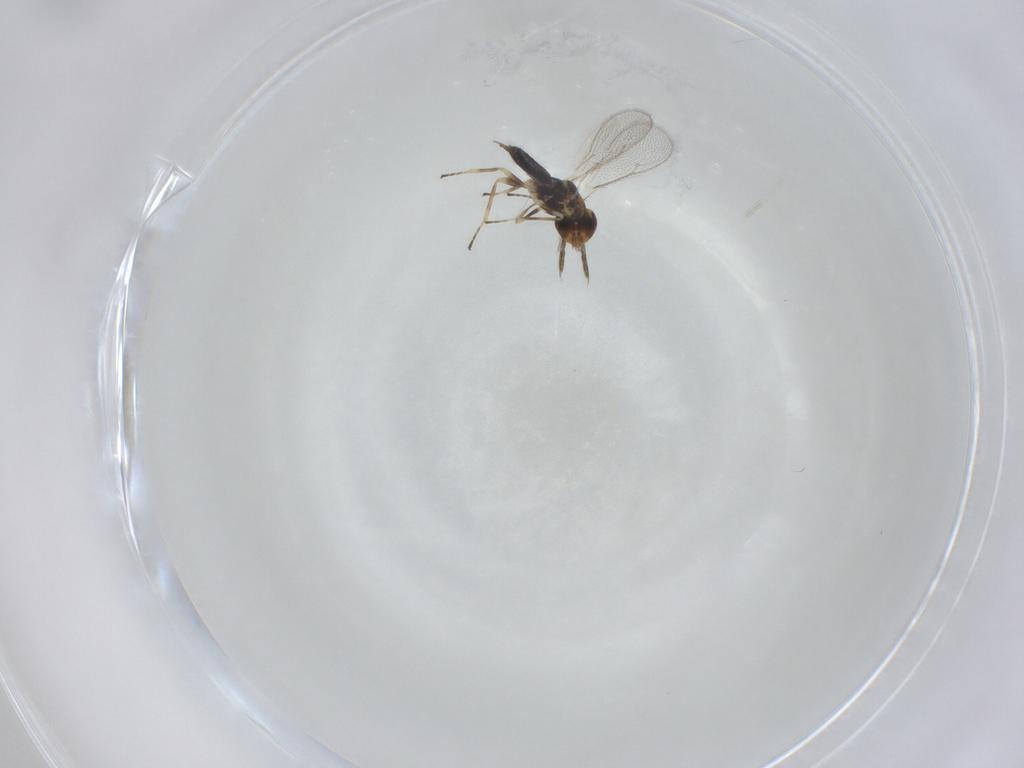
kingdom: Animalia
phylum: Arthropoda
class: Insecta
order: Hymenoptera
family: Eulophidae
